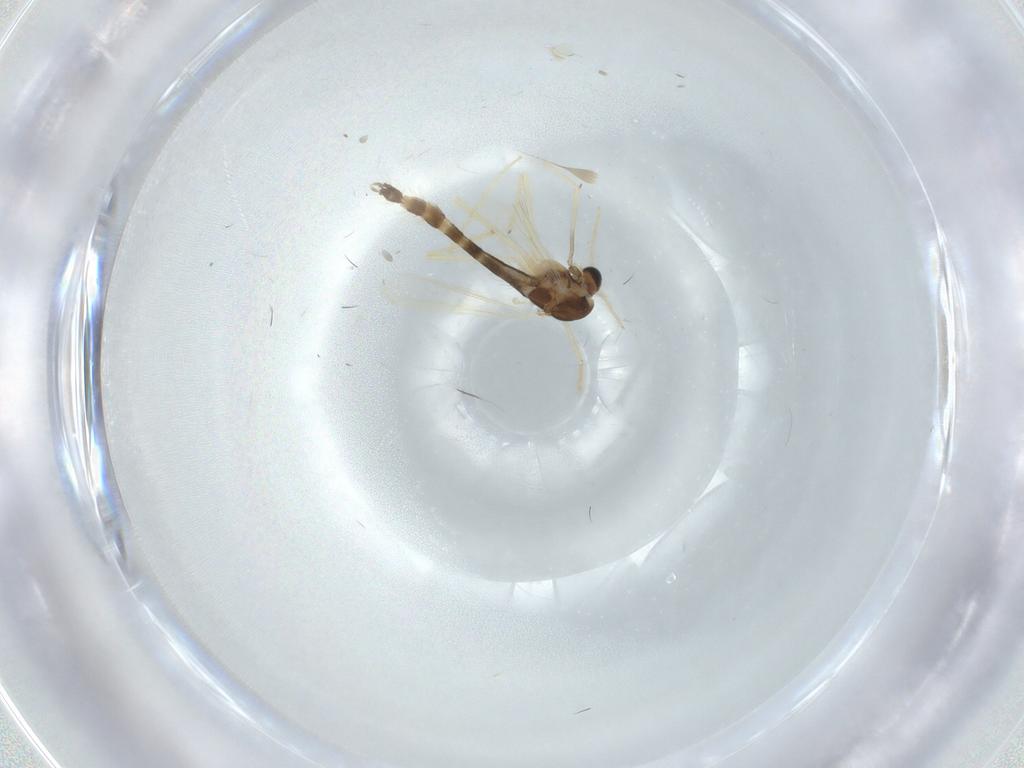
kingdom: Animalia
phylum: Arthropoda
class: Insecta
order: Diptera
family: Chironomidae
